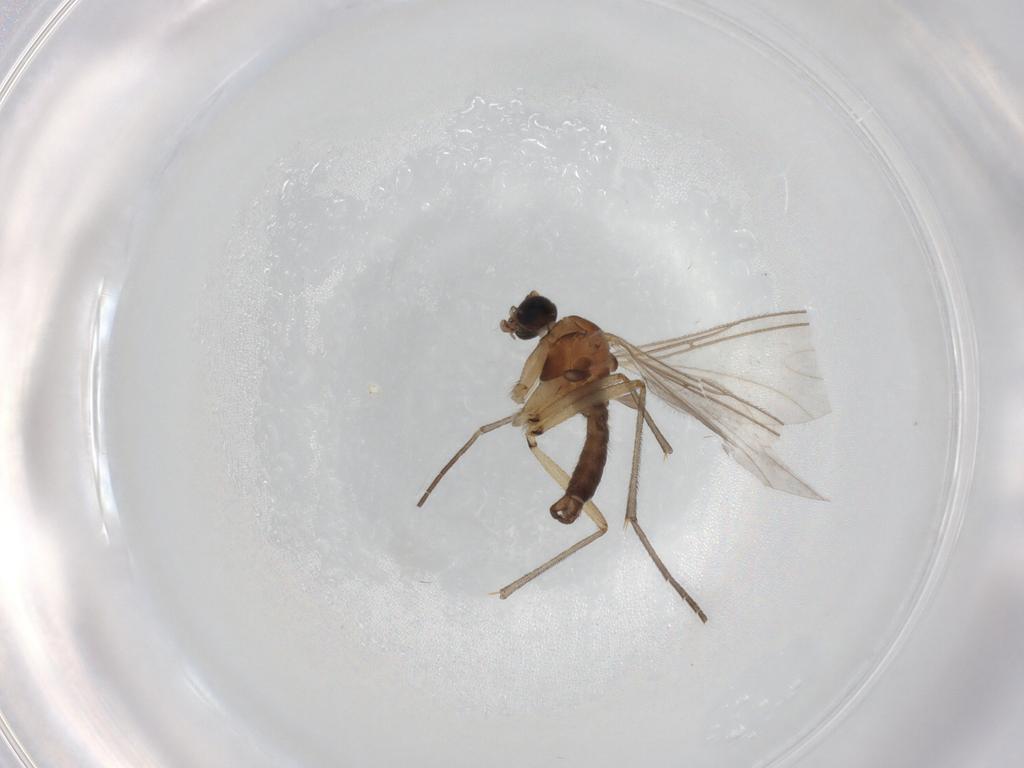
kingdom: Animalia
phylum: Arthropoda
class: Insecta
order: Diptera
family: Sciaridae
